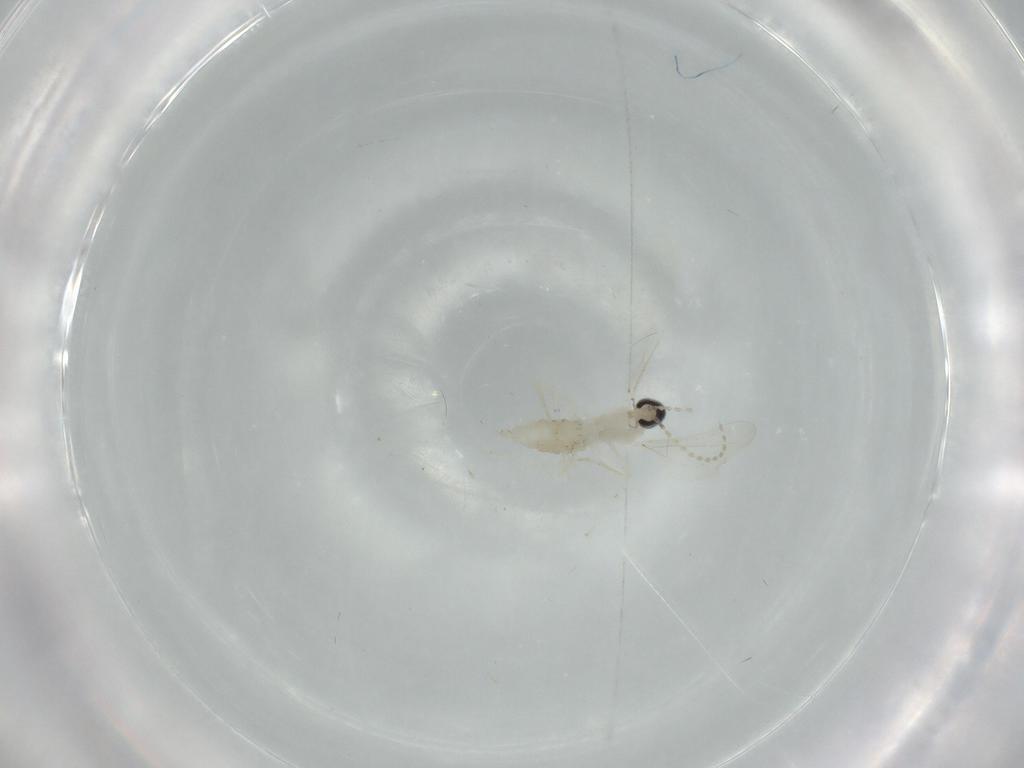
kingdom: Animalia
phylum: Arthropoda
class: Insecta
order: Diptera
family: Cecidomyiidae
